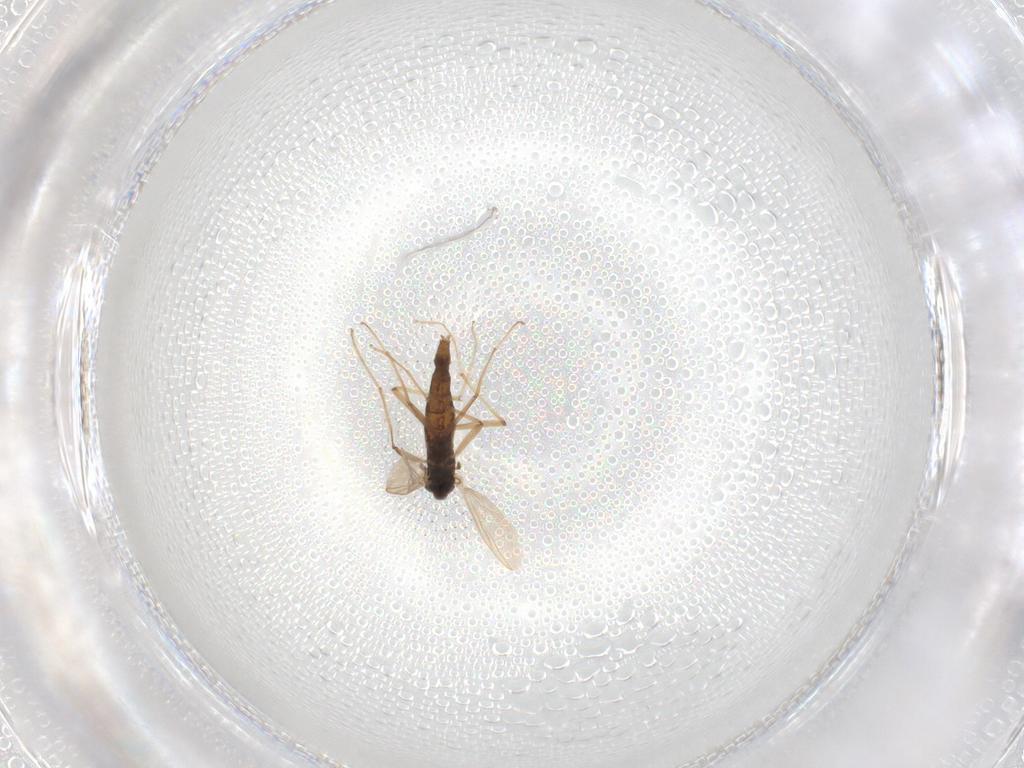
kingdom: Animalia
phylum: Arthropoda
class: Insecta
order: Diptera
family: Chironomidae
